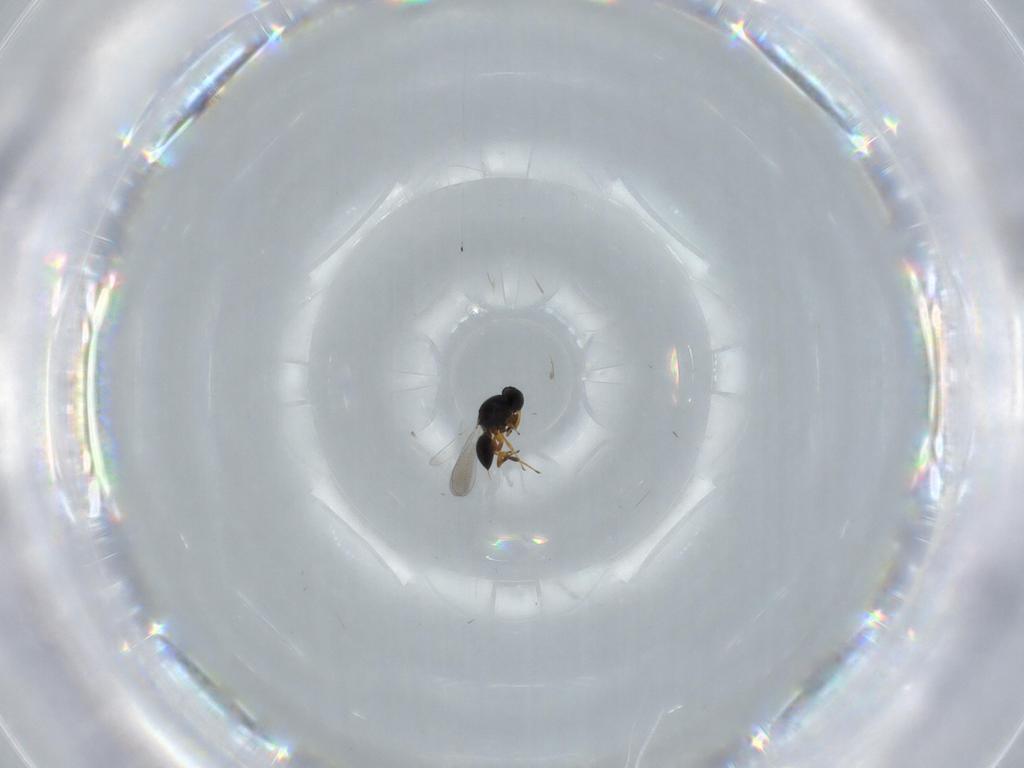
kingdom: Animalia
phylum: Arthropoda
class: Insecta
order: Hymenoptera
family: Platygastridae
